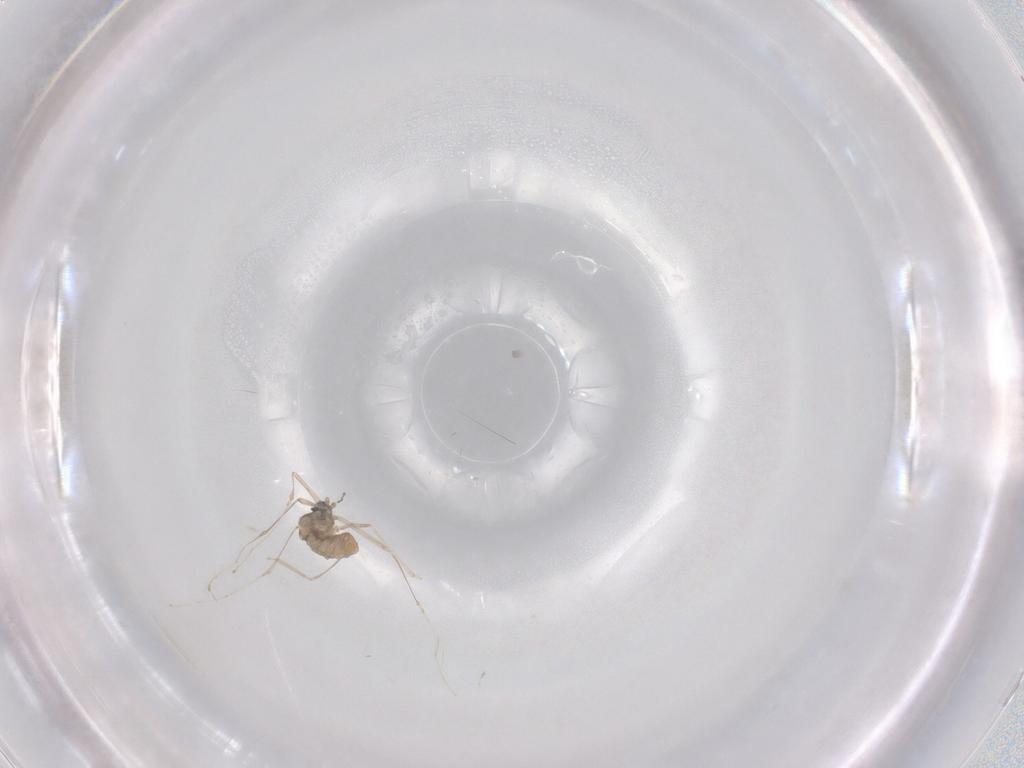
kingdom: Animalia
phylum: Arthropoda
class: Insecta
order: Diptera
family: Cecidomyiidae
